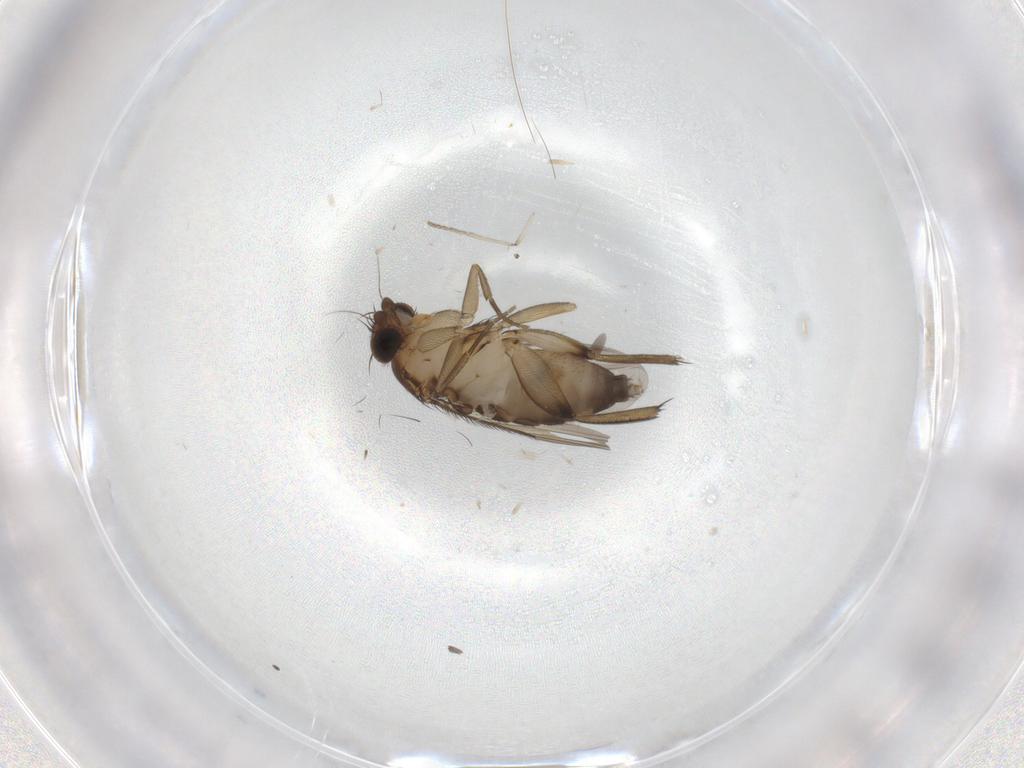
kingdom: Animalia
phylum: Arthropoda
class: Insecta
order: Diptera
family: Phoridae
